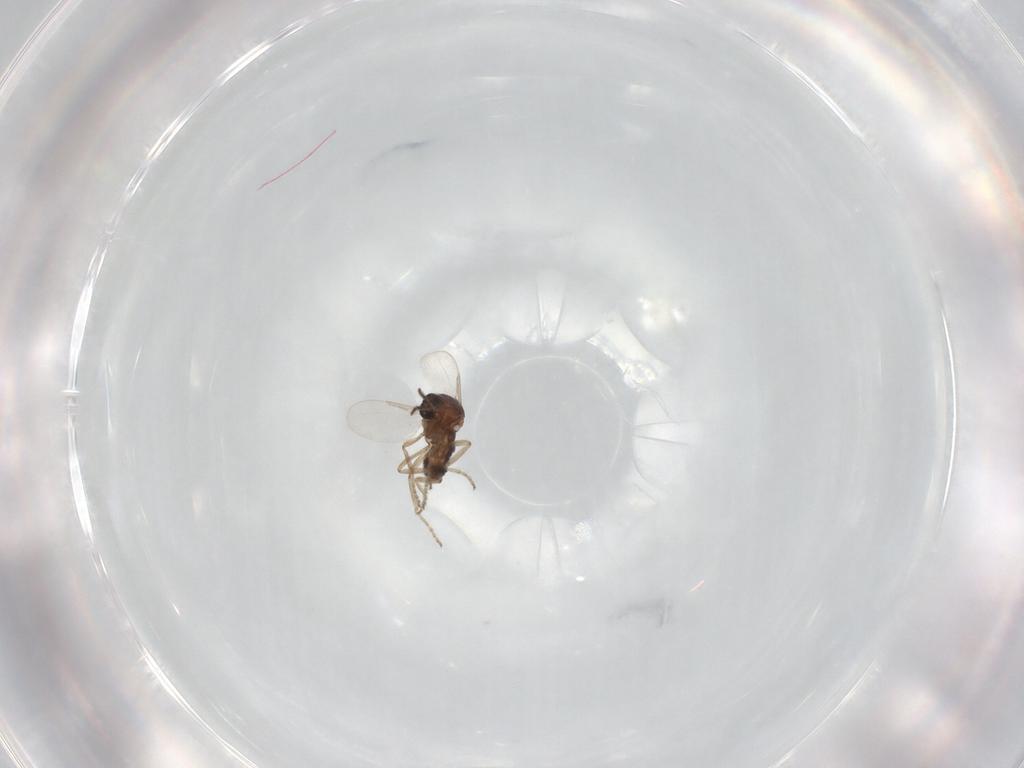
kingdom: Animalia
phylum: Arthropoda
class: Insecta
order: Diptera
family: Ceratopogonidae
